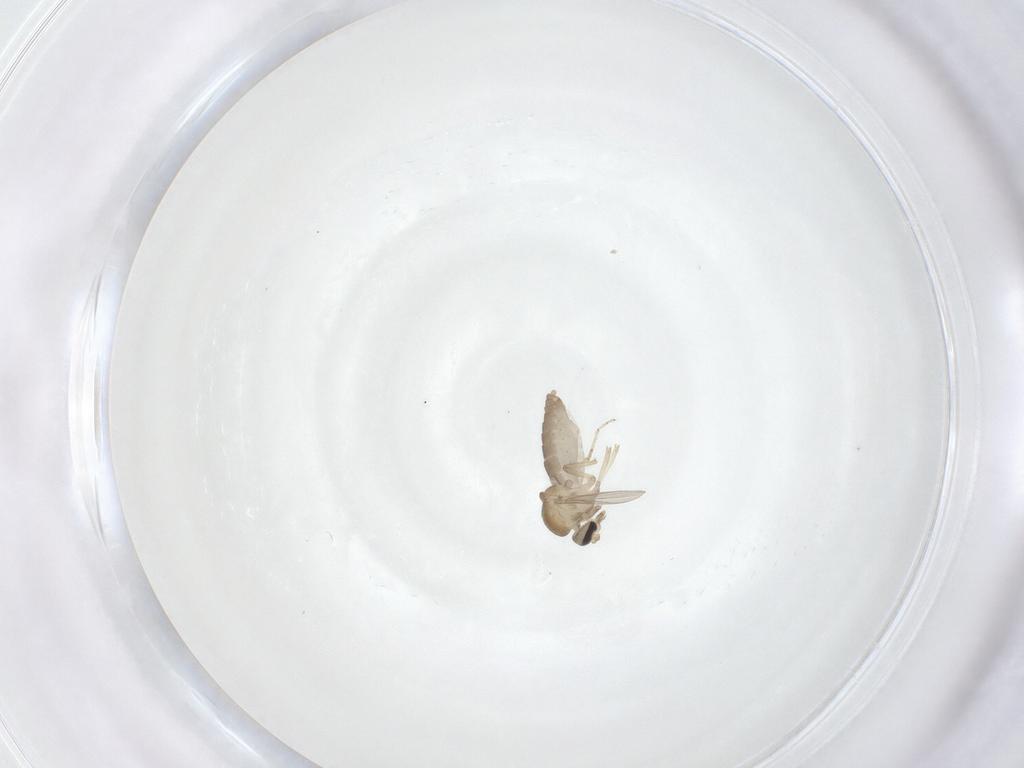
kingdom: Animalia
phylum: Arthropoda
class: Insecta
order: Diptera
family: Ceratopogonidae
